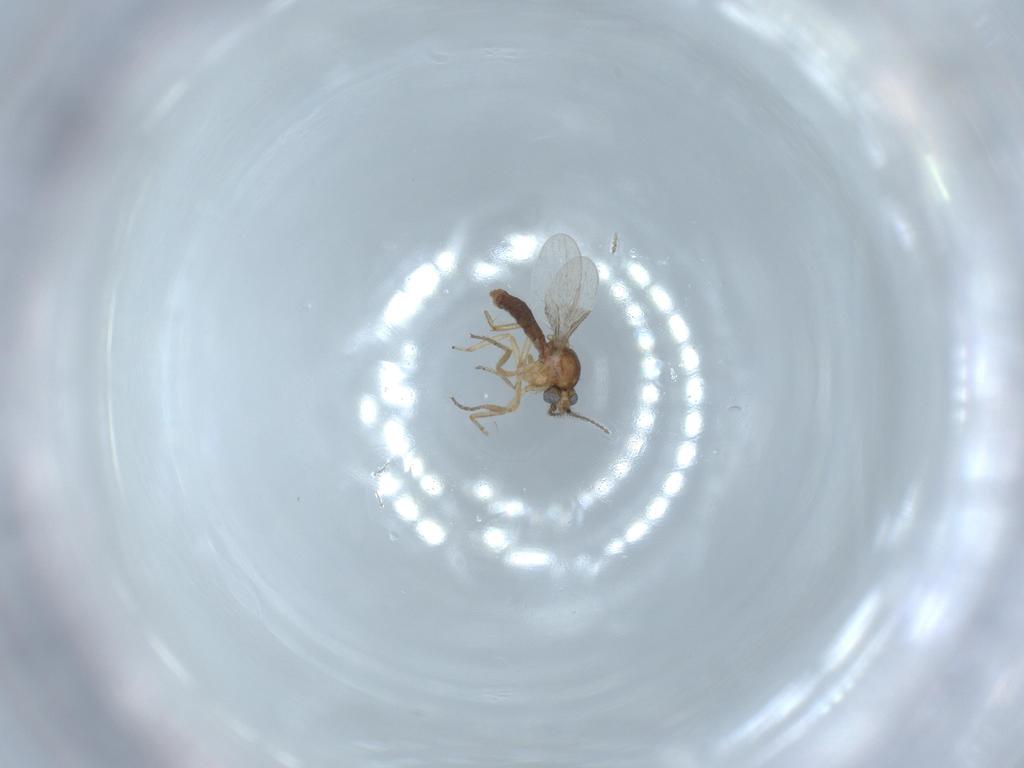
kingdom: Animalia
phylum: Arthropoda
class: Insecta
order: Diptera
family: Ceratopogonidae
